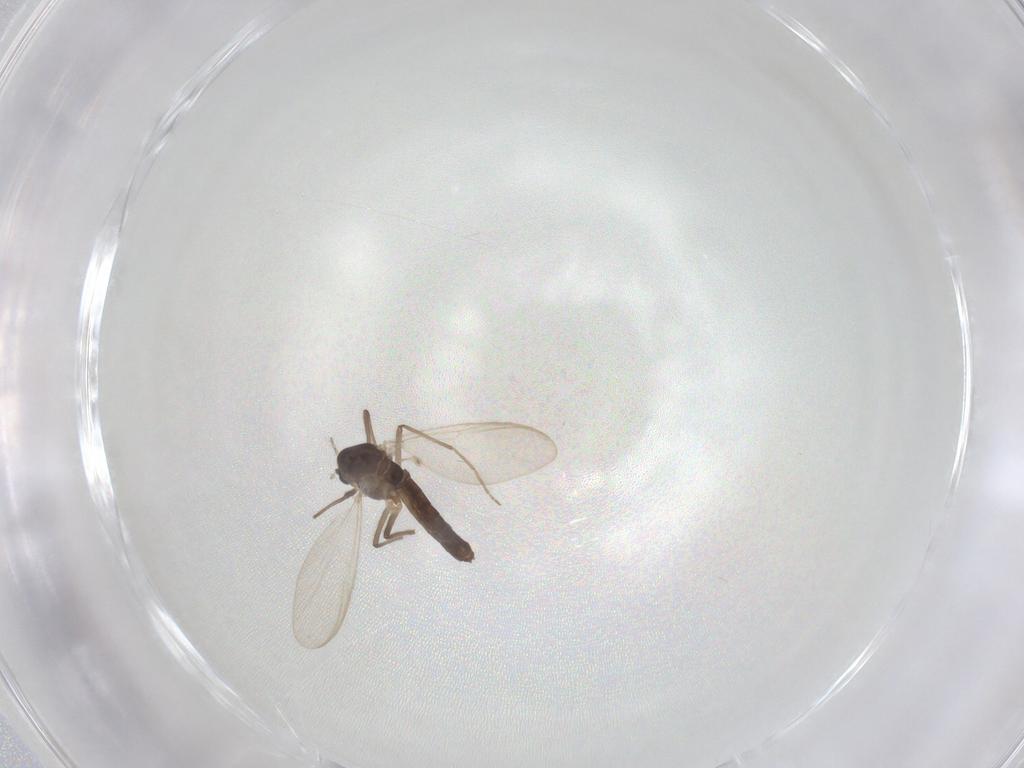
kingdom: Animalia
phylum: Arthropoda
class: Insecta
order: Diptera
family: Chironomidae
